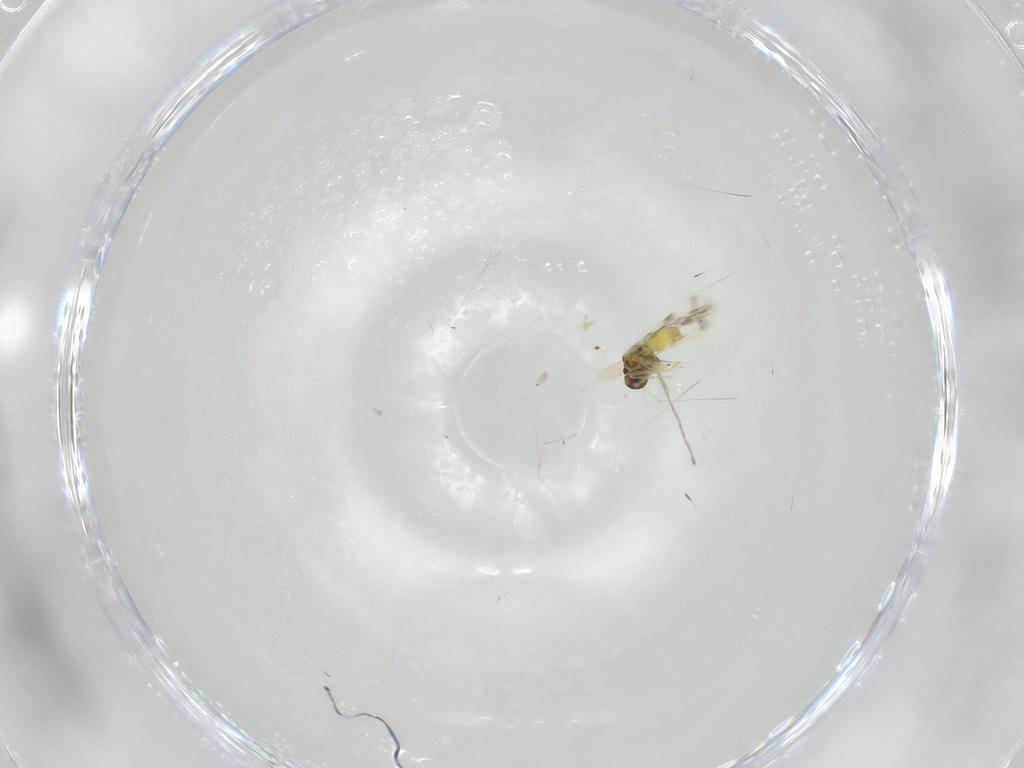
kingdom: Animalia
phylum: Arthropoda
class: Insecta
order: Hemiptera
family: Aleyrodidae
